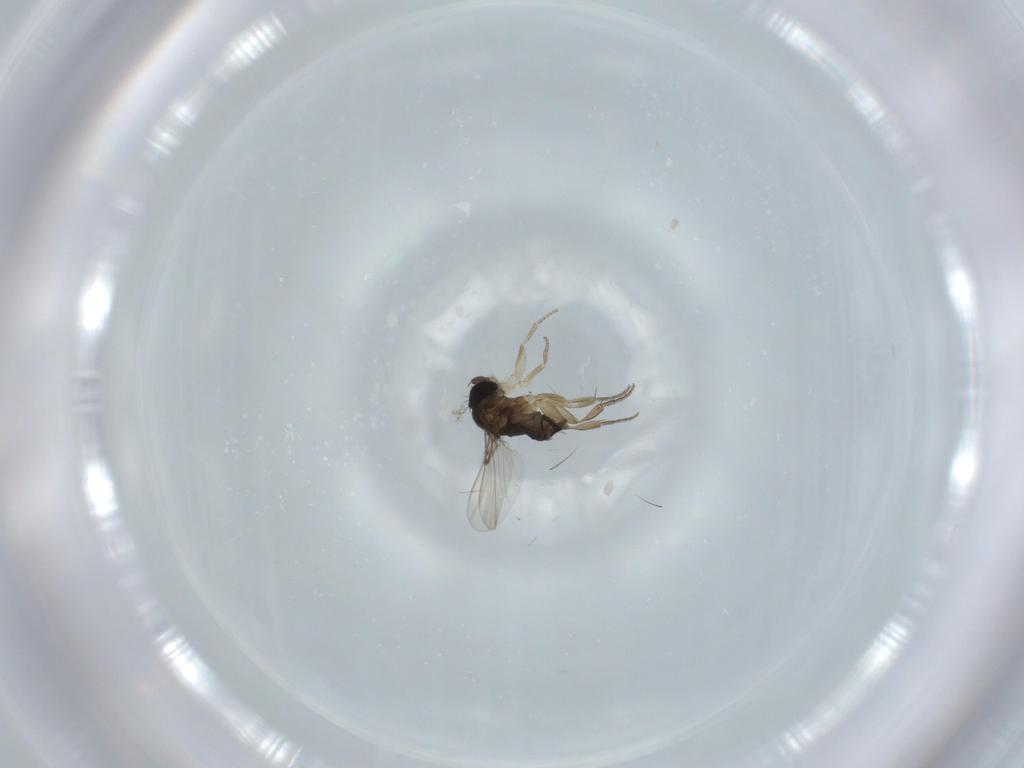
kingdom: Animalia
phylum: Arthropoda
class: Insecta
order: Diptera
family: Phoridae
